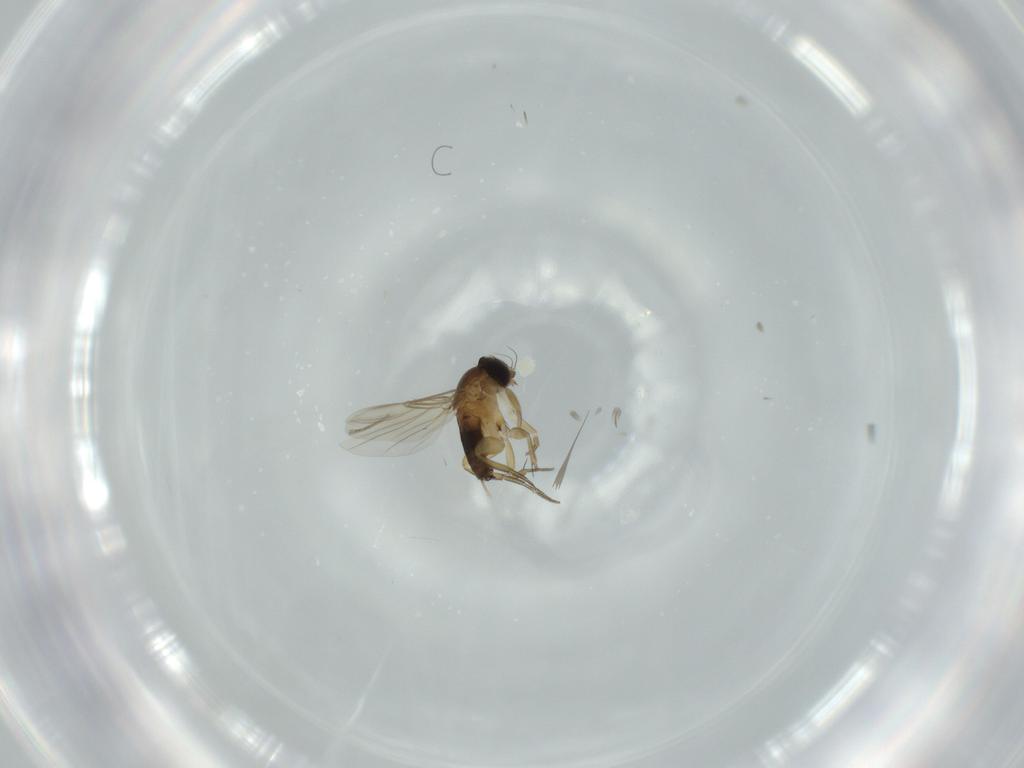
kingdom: Animalia
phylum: Arthropoda
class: Insecta
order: Diptera
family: Phoridae
